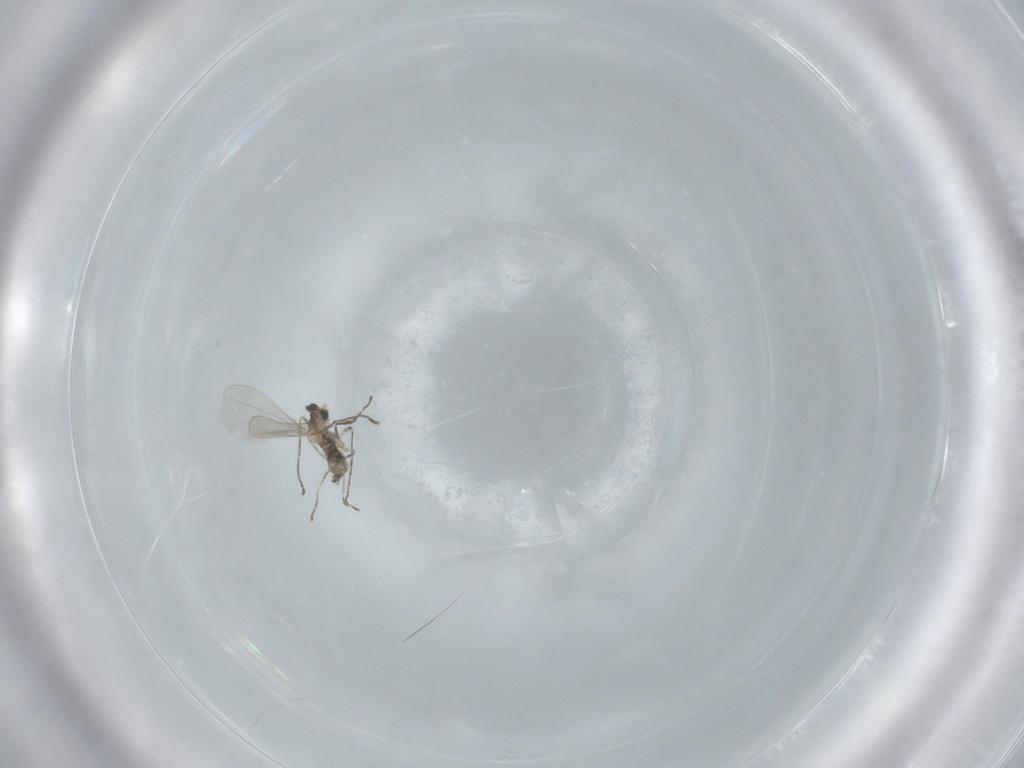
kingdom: Animalia
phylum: Arthropoda
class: Insecta
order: Diptera
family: Cecidomyiidae
